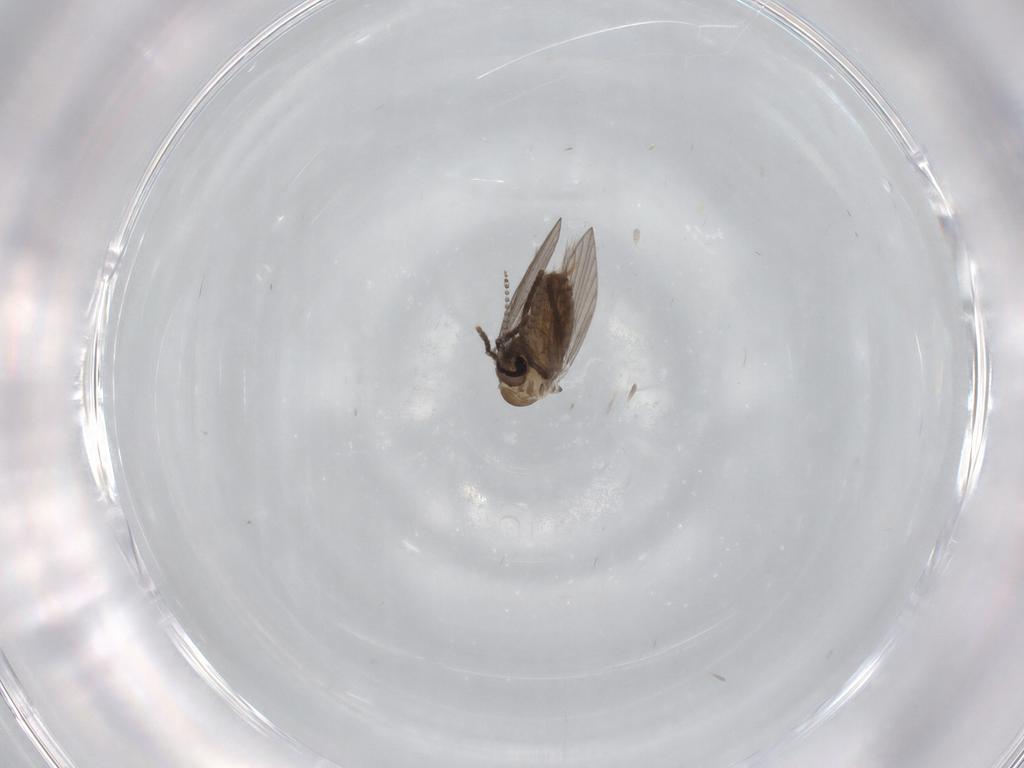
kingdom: Animalia
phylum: Arthropoda
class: Insecta
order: Diptera
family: Psychodidae
